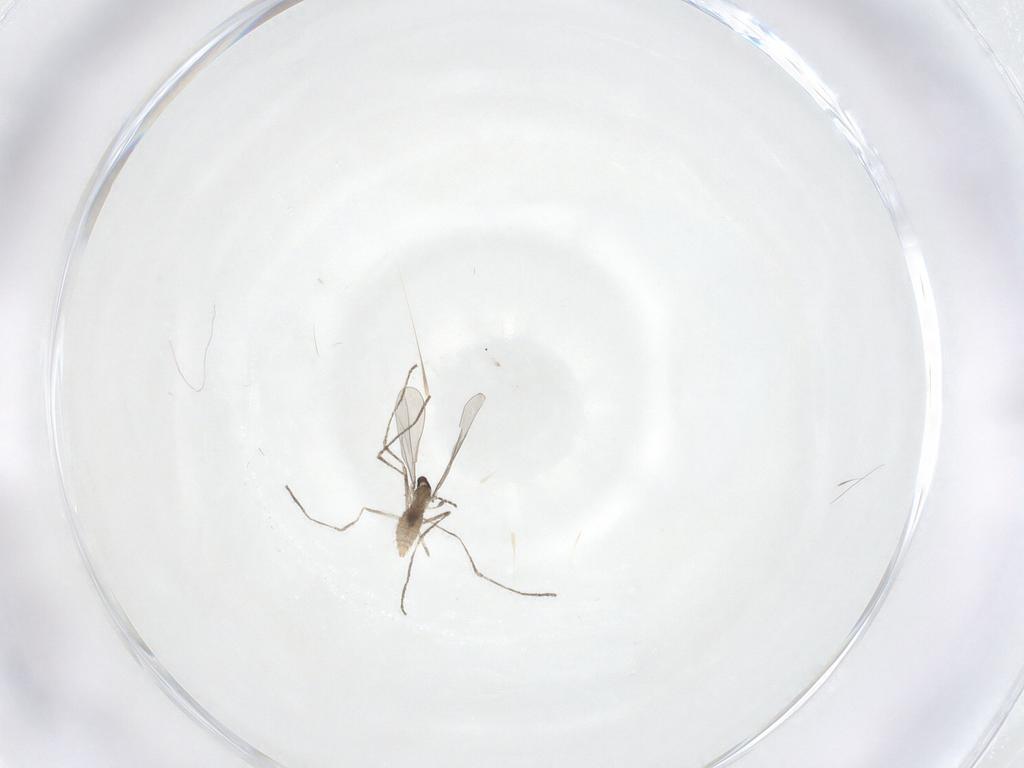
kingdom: Animalia
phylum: Arthropoda
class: Insecta
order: Diptera
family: Cecidomyiidae
